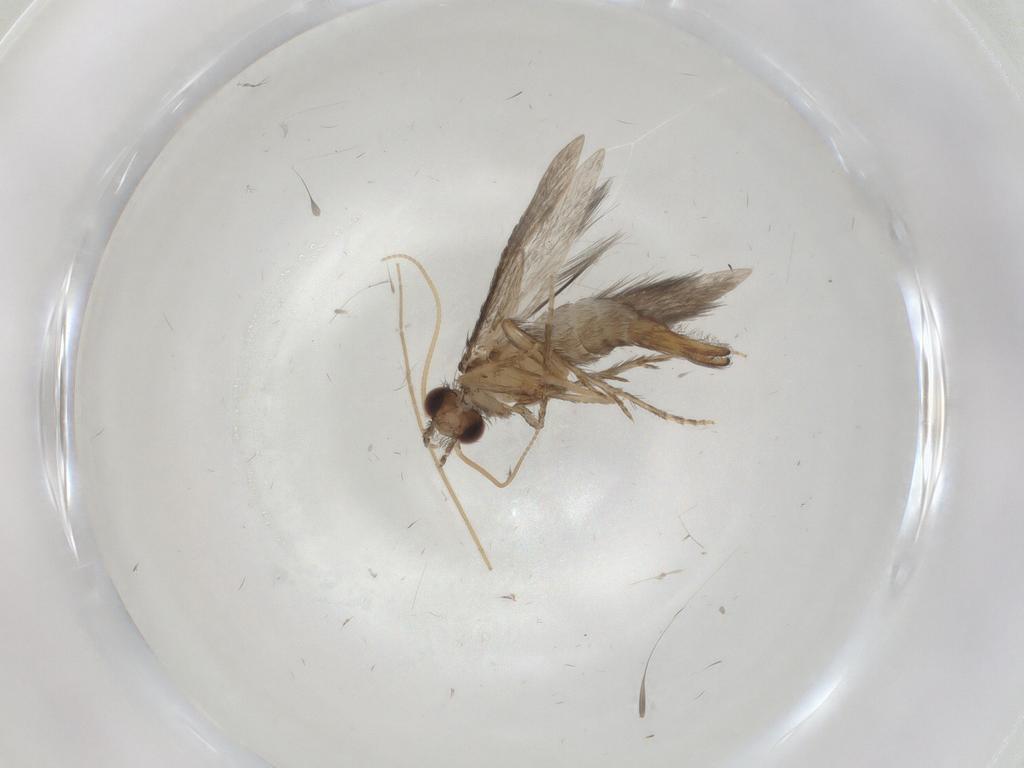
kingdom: Animalia
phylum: Arthropoda
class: Insecta
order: Trichoptera
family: Hydroptilidae
